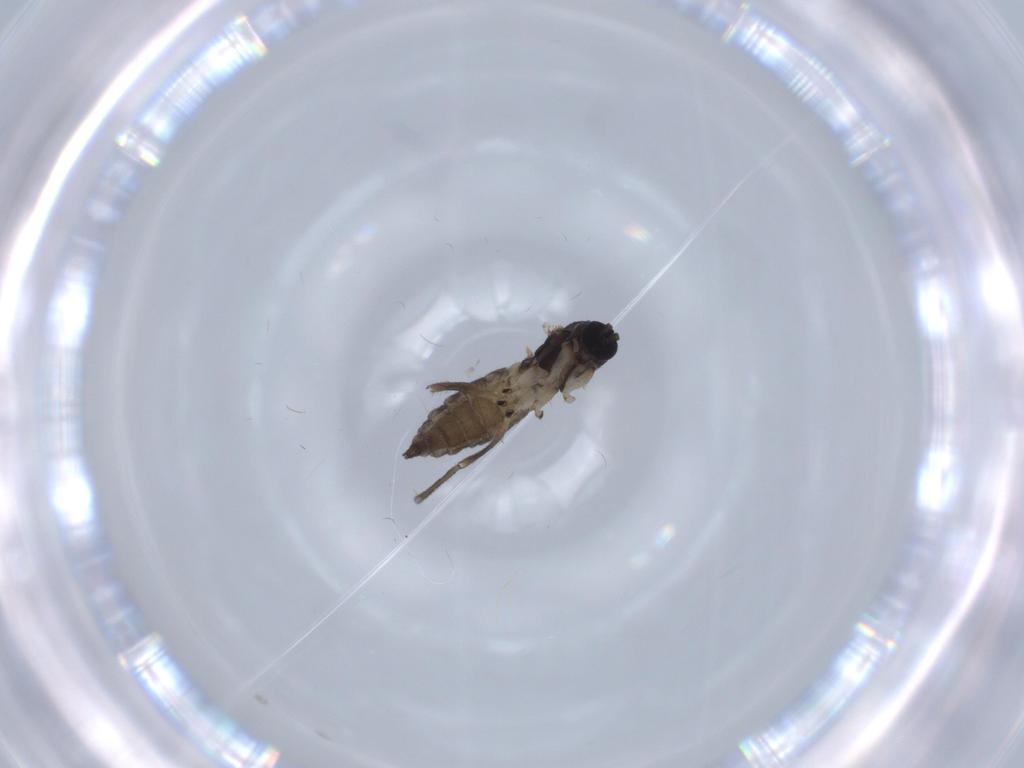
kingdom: Animalia
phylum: Arthropoda
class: Insecta
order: Diptera
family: Sciaridae
